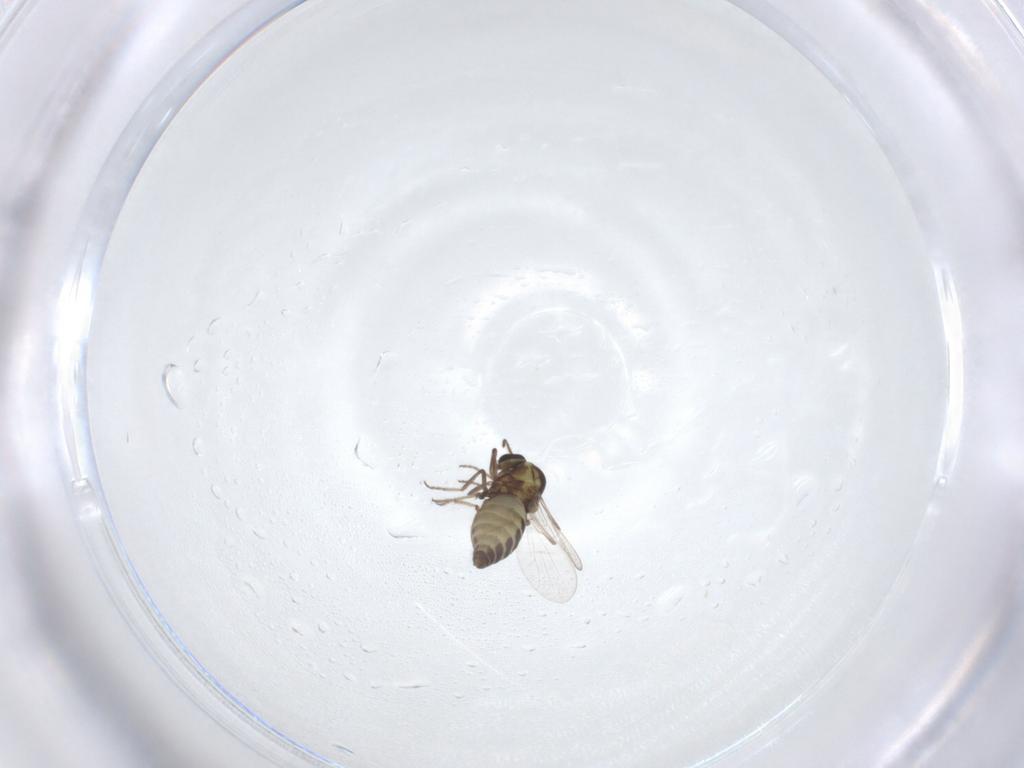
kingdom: Animalia
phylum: Arthropoda
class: Insecta
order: Diptera
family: Ceratopogonidae
